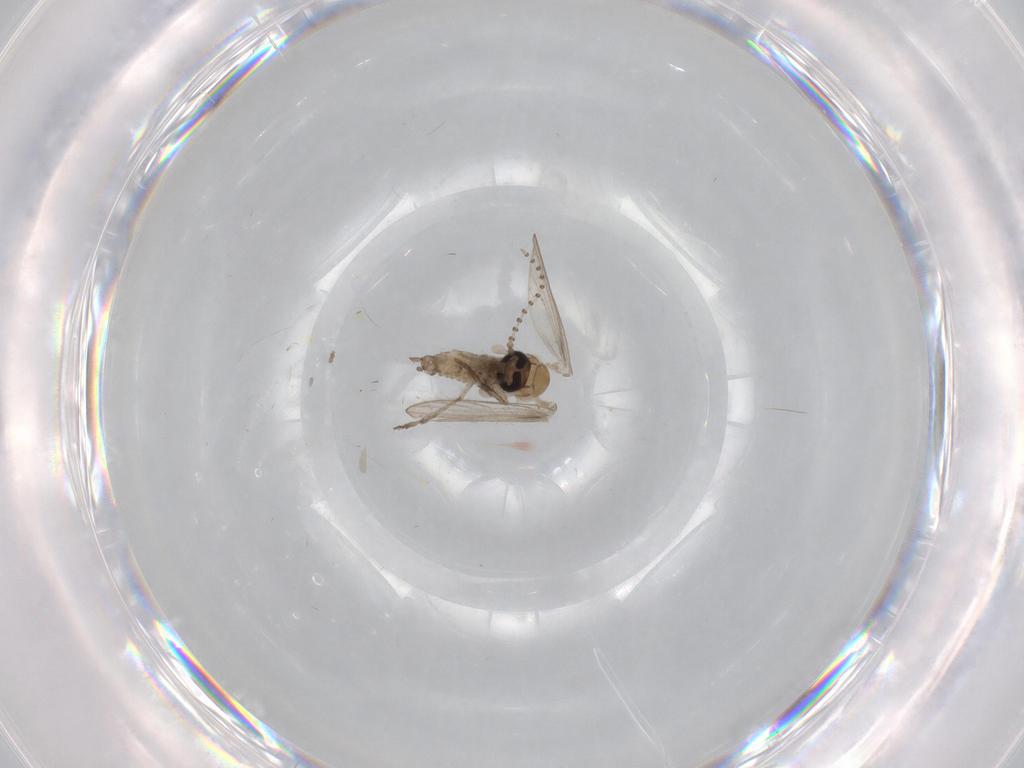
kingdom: Animalia
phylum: Arthropoda
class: Insecta
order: Diptera
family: Psychodidae
